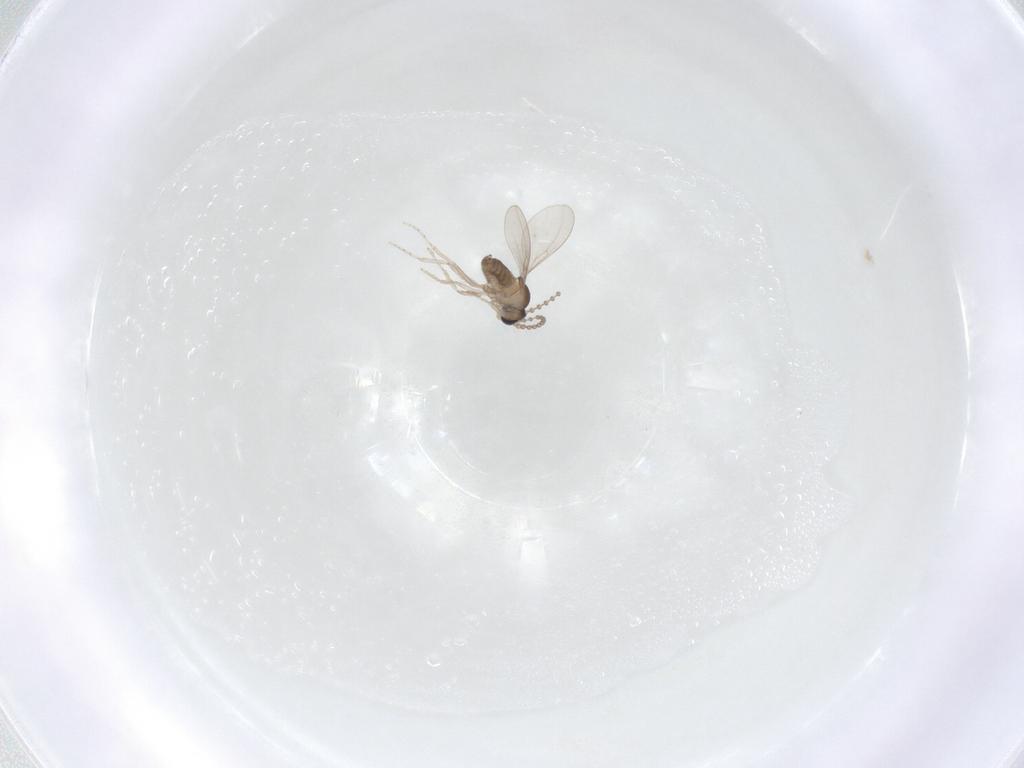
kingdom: Animalia
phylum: Arthropoda
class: Insecta
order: Diptera
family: Cecidomyiidae
